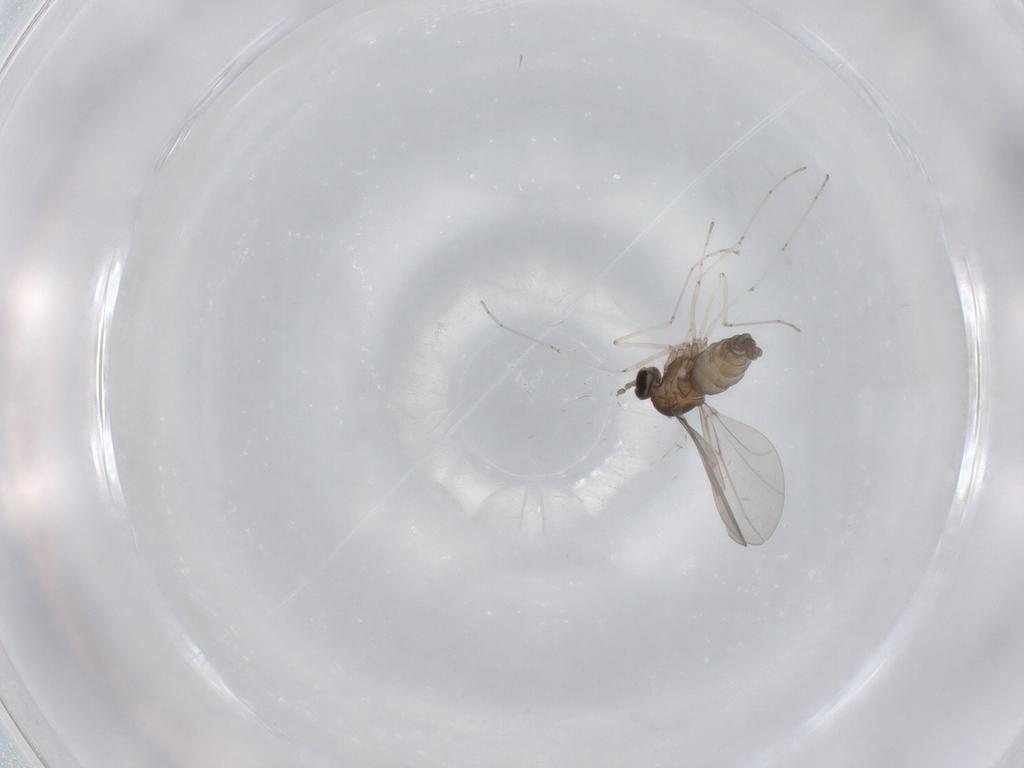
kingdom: Animalia
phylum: Arthropoda
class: Insecta
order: Diptera
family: Cecidomyiidae
